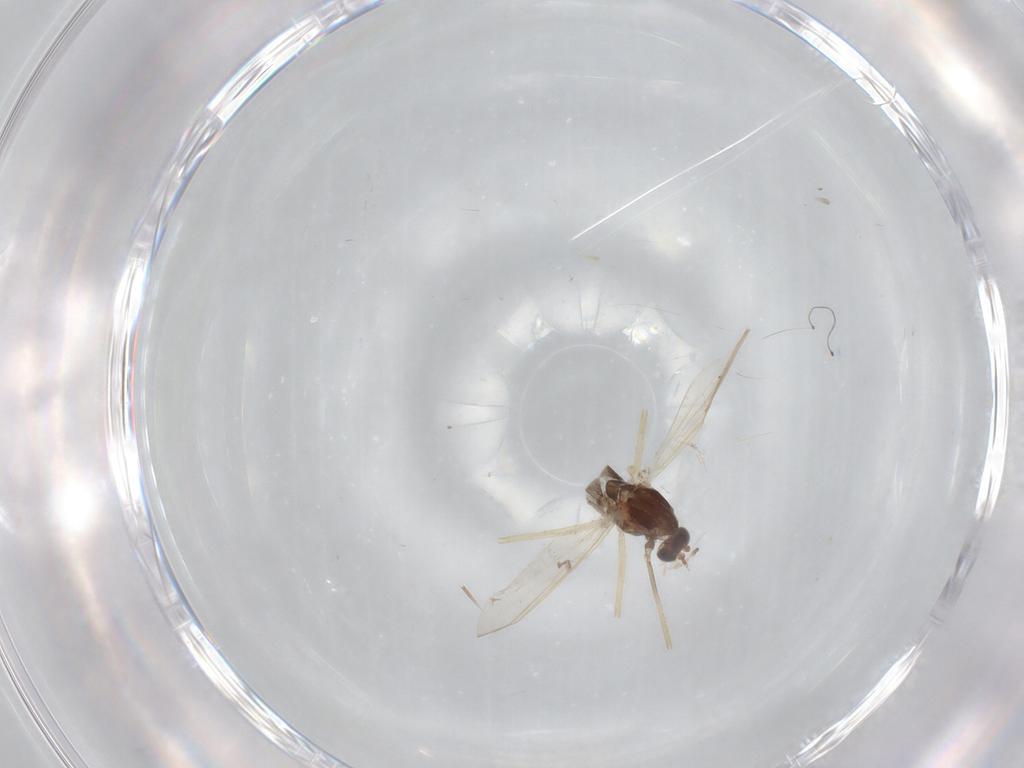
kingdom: Animalia
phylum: Arthropoda
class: Insecta
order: Diptera
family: Chironomidae
